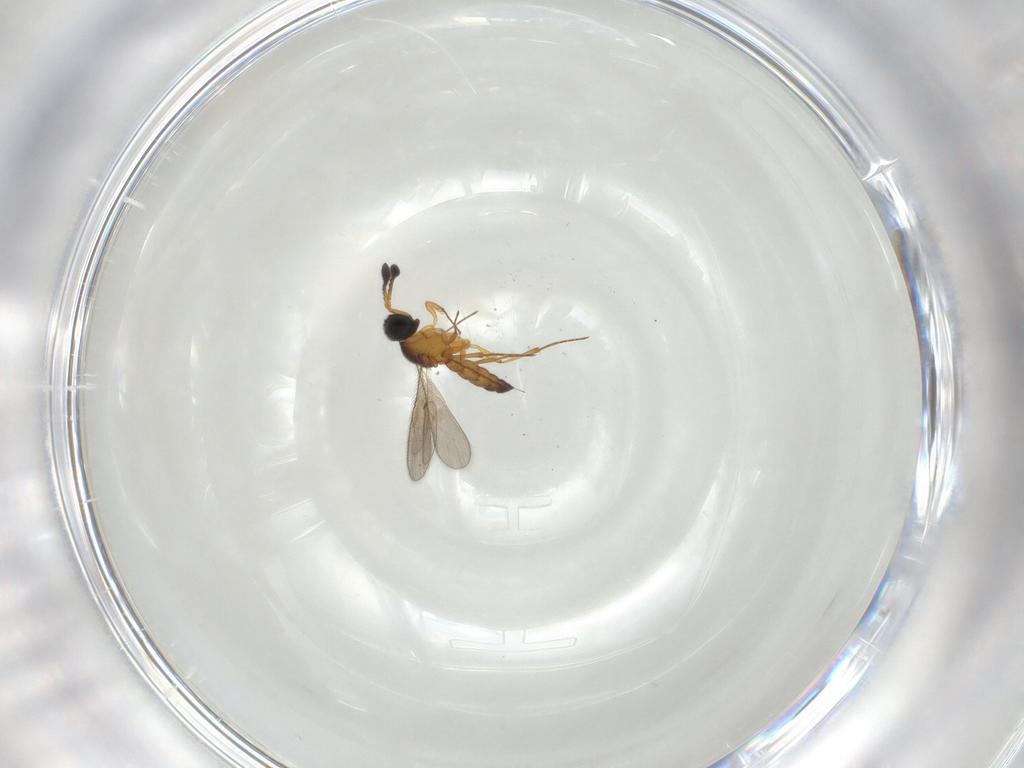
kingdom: Animalia
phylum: Arthropoda
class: Insecta
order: Hymenoptera
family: Scelionidae
